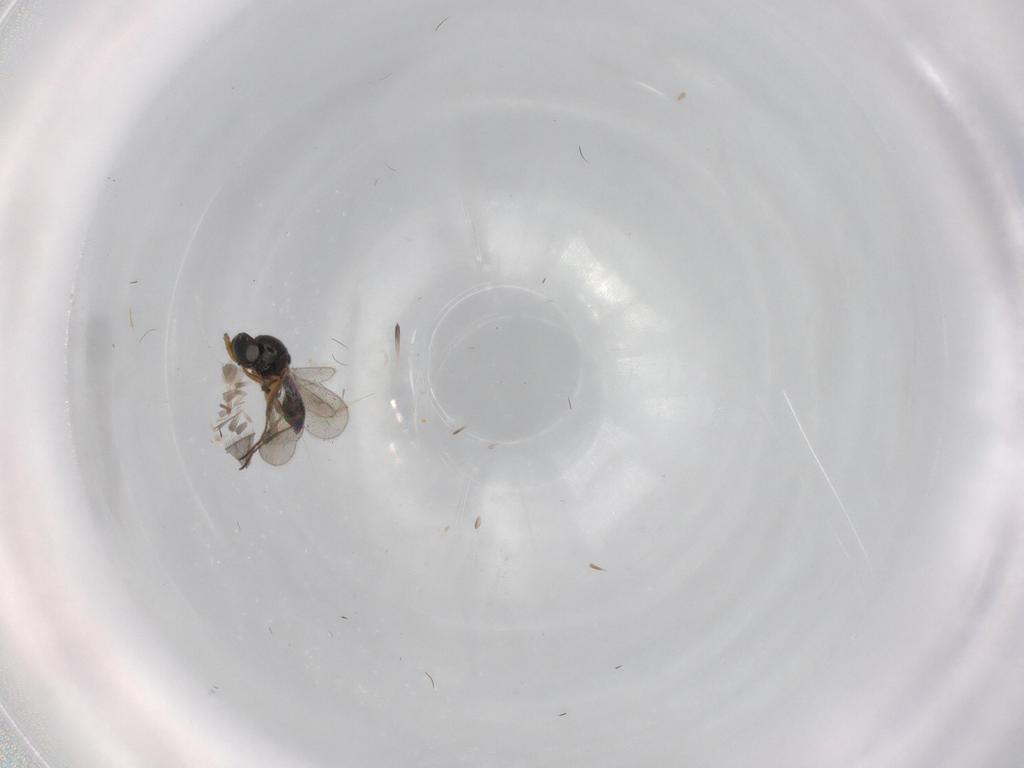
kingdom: Animalia
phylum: Arthropoda
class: Insecta
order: Hymenoptera
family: Platygastridae
